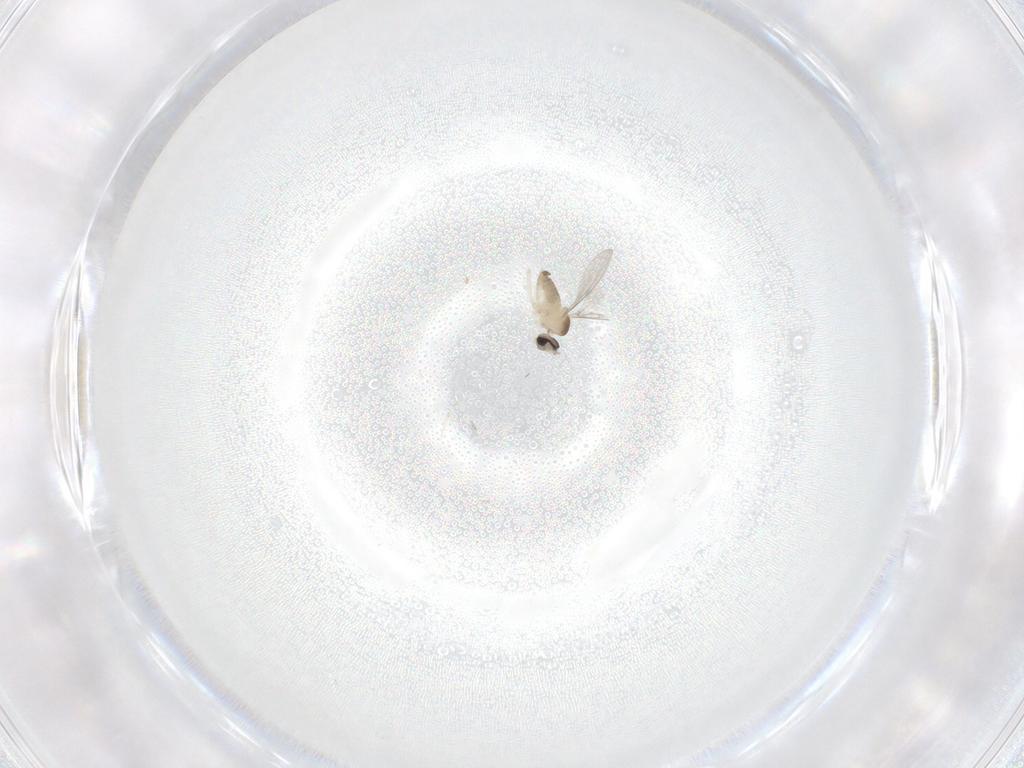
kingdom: Animalia
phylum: Arthropoda
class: Insecta
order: Diptera
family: Cecidomyiidae
